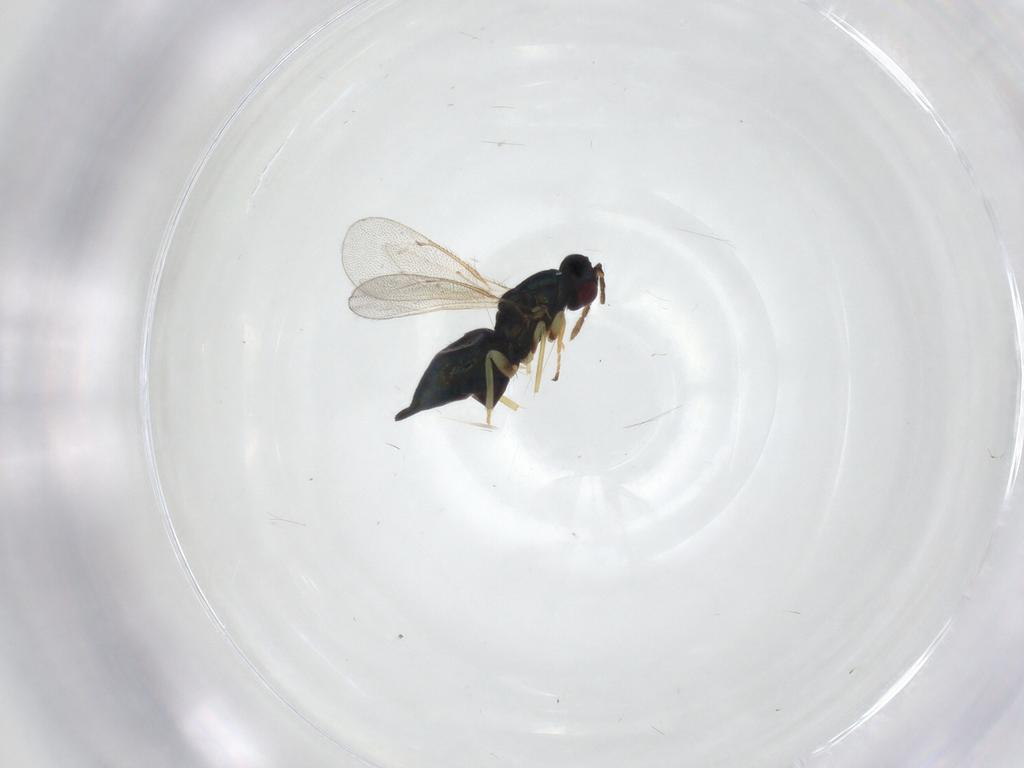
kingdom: Animalia
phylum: Arthropoda
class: Insecta
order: Hymenoptera
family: Eulophidae
